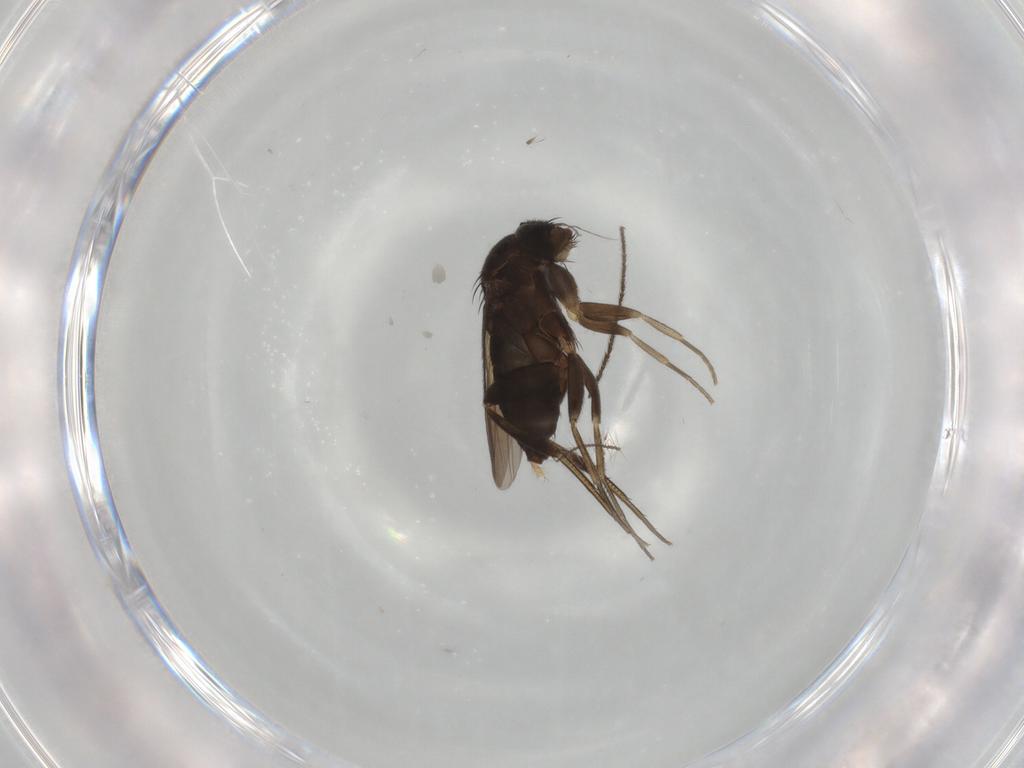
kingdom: Animalia
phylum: Arthropoda
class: Insecta
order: Diptera
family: Phoridae
